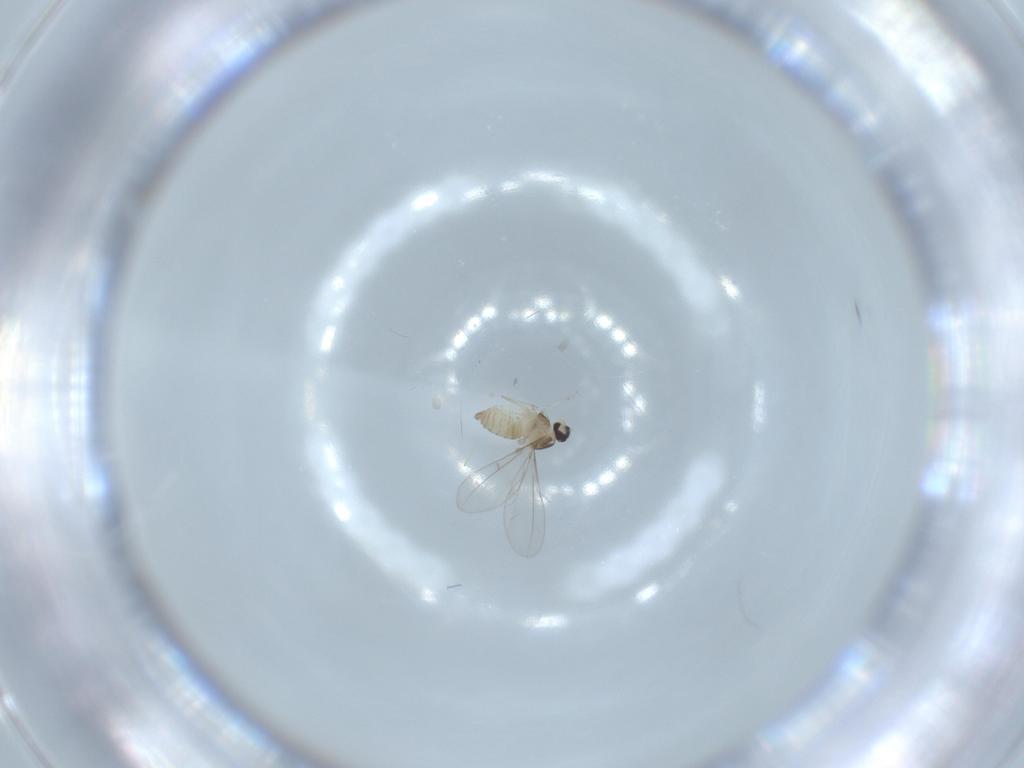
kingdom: Animalia
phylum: Arthropoda
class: Insecta
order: Diptera
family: Cecidomyiidae
